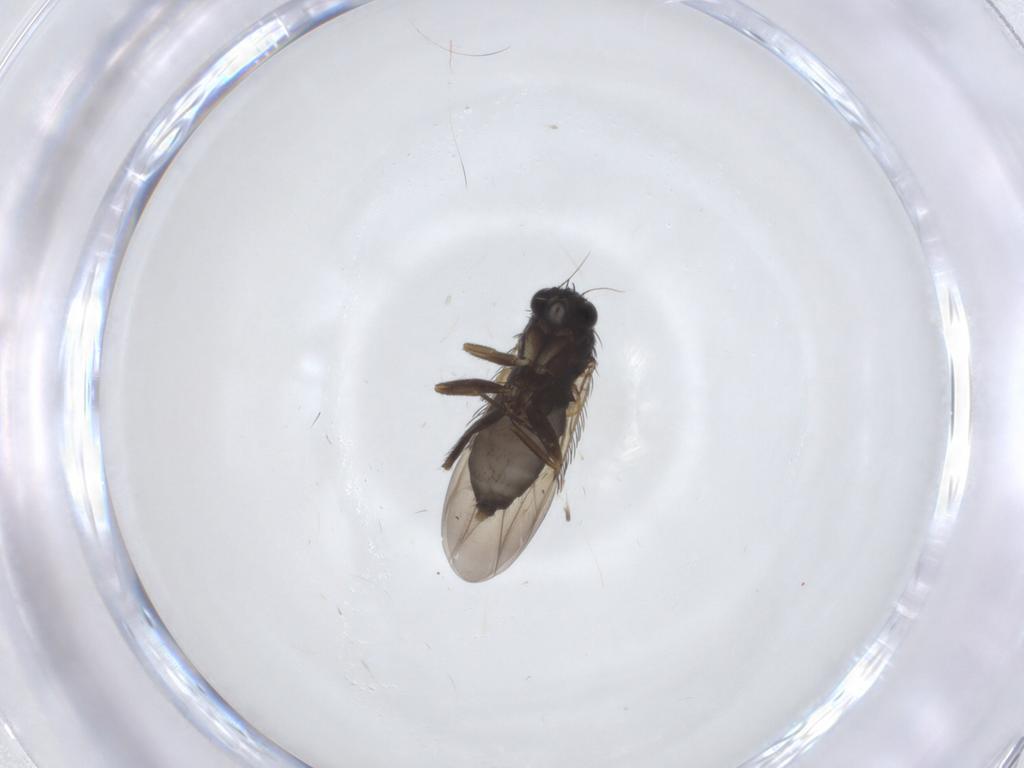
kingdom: Animalia
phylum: Arthropoda
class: Insecta
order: Diptera
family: Phoridae
